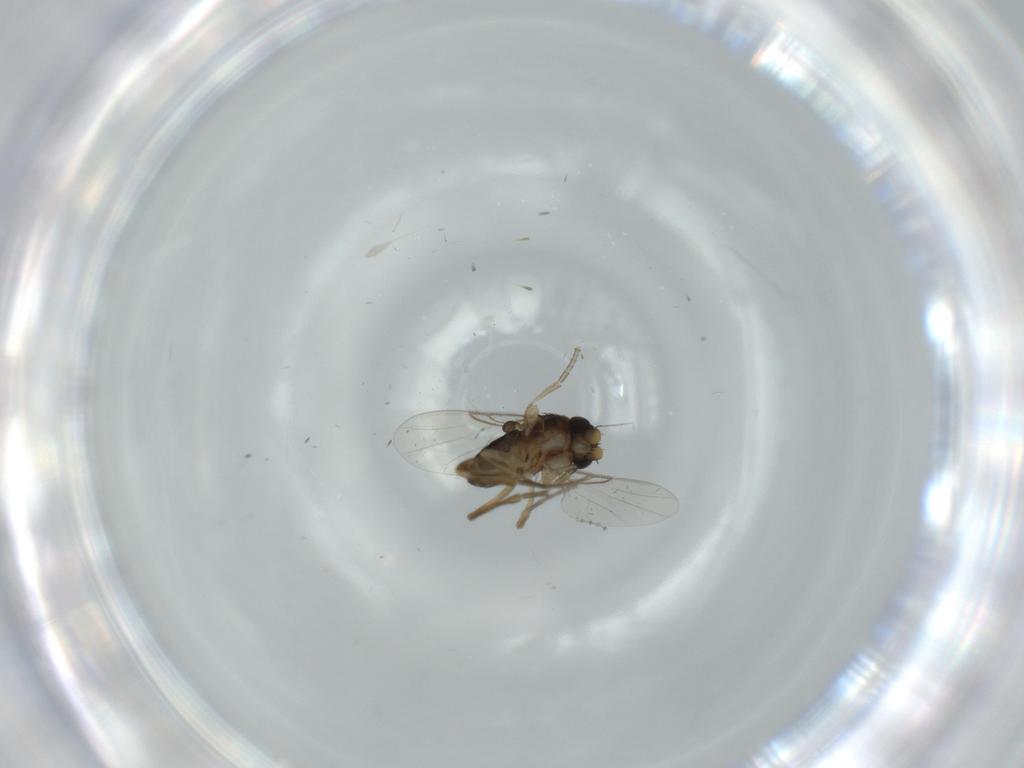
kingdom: Animalia
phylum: Arthropoda
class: Insecta
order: Diptera
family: Phoridae
